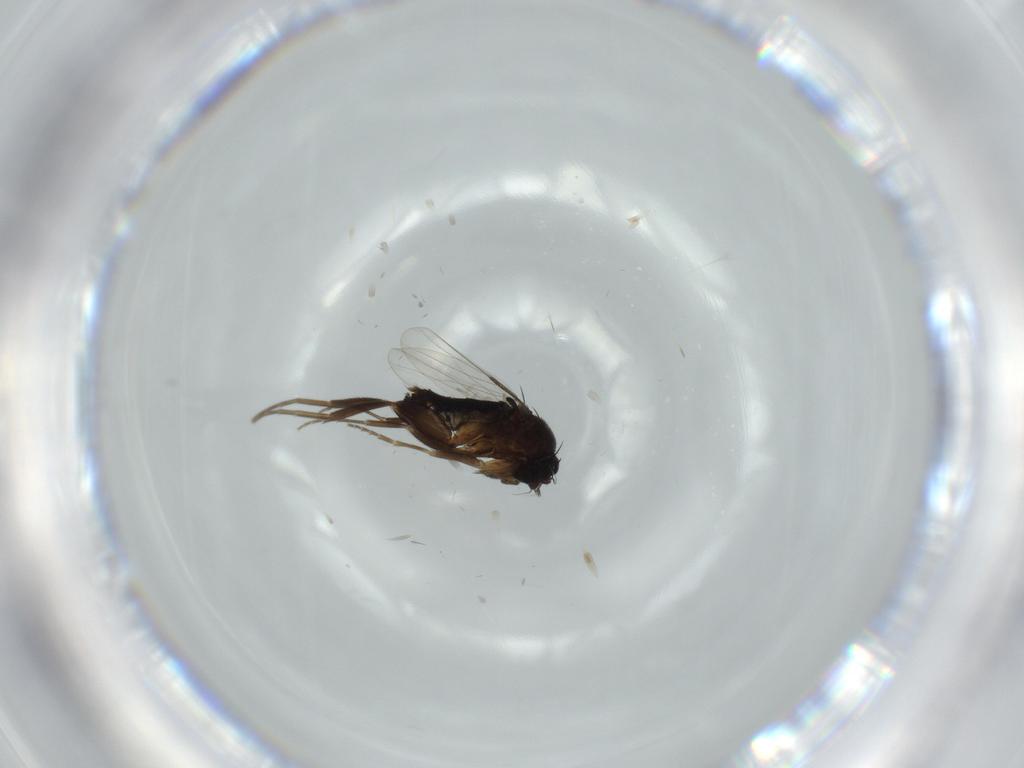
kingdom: Animalia
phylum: Arthropoda
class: Insecta
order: Diptera
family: Phoridae
